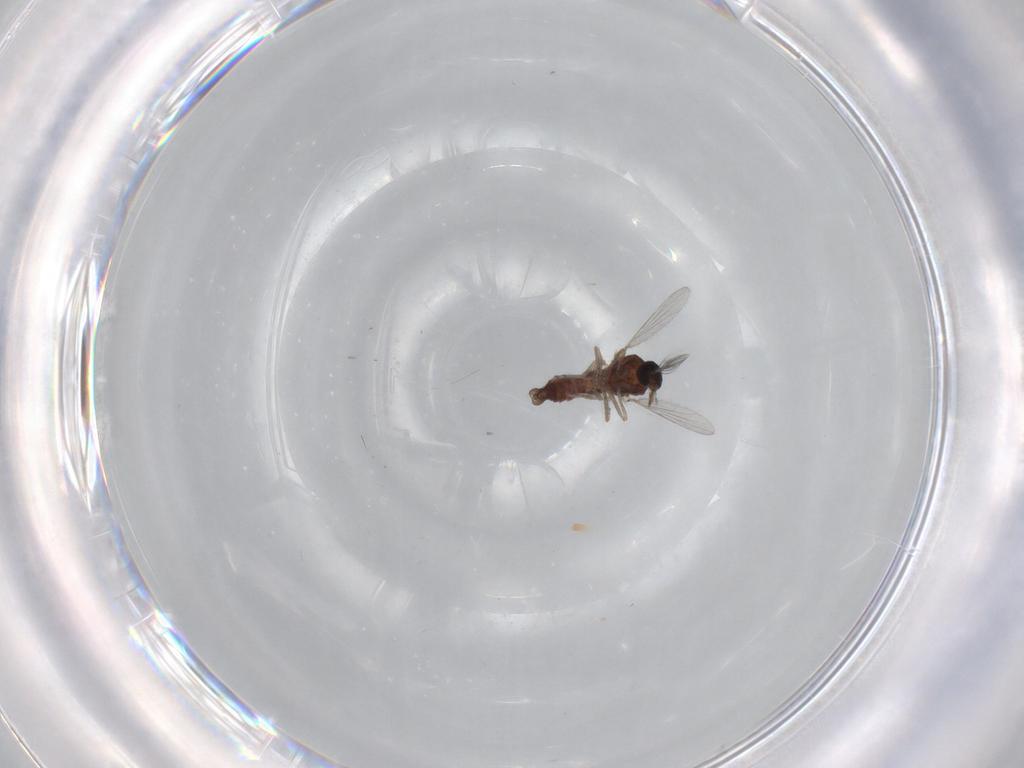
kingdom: Animalia
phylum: Arthropoda
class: Insecta
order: Diptera
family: Ceratopogonidae
